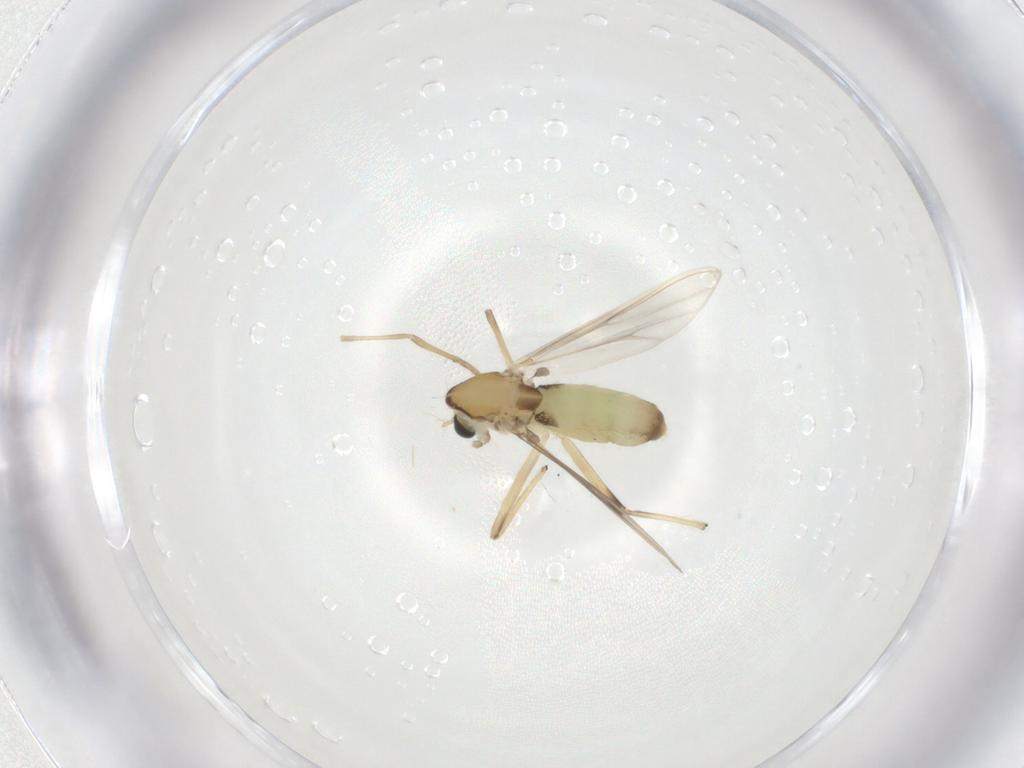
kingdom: Animalia
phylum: Arthropoda
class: Insecta
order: Diptera
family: Chironomidae
